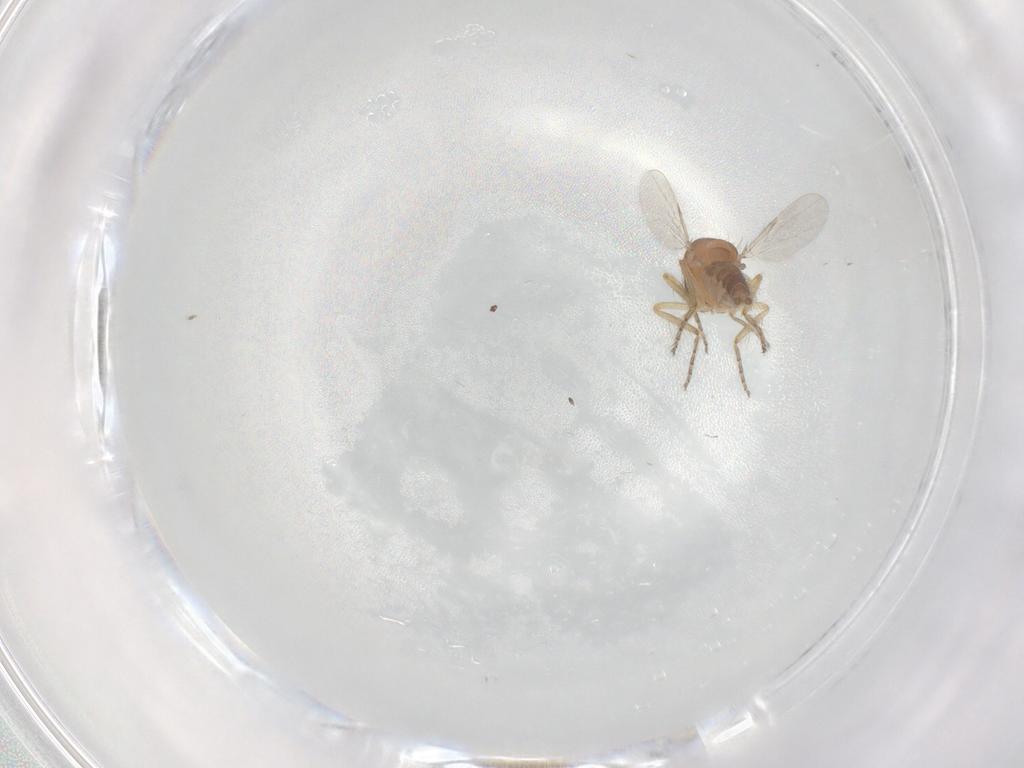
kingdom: Animalia
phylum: Arthropoda
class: Insecta
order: Diptera
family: Ceratopogonidae
